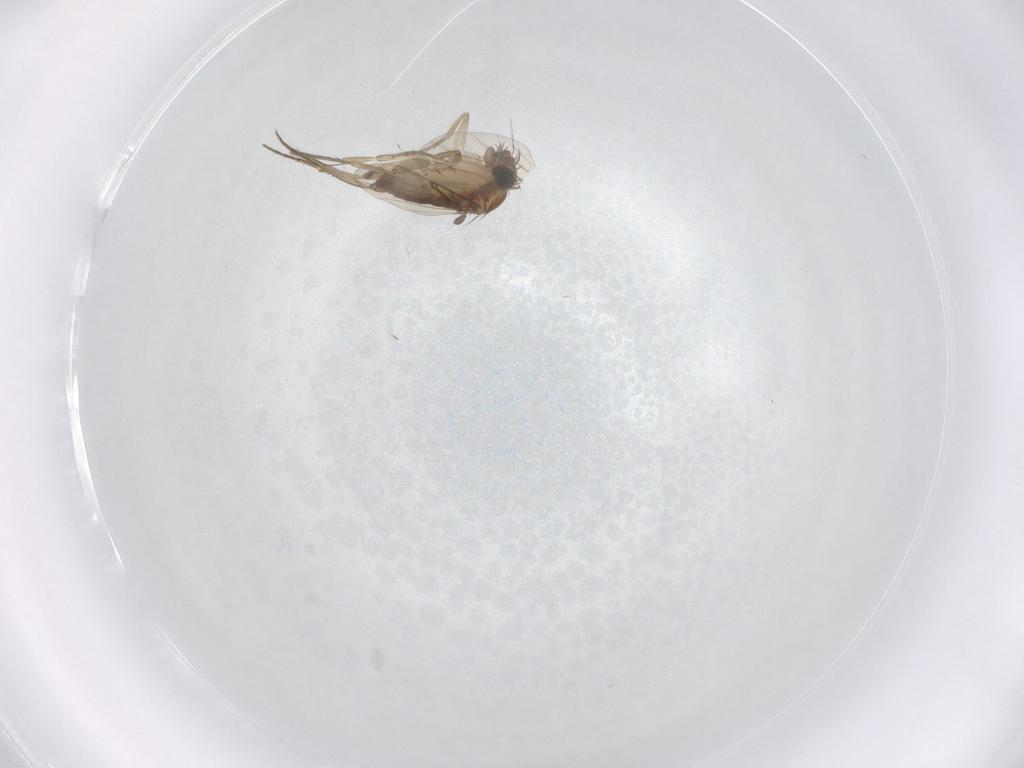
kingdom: Animalia
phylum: Arthropoda
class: Insecta
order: Diptera
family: Phoridae
